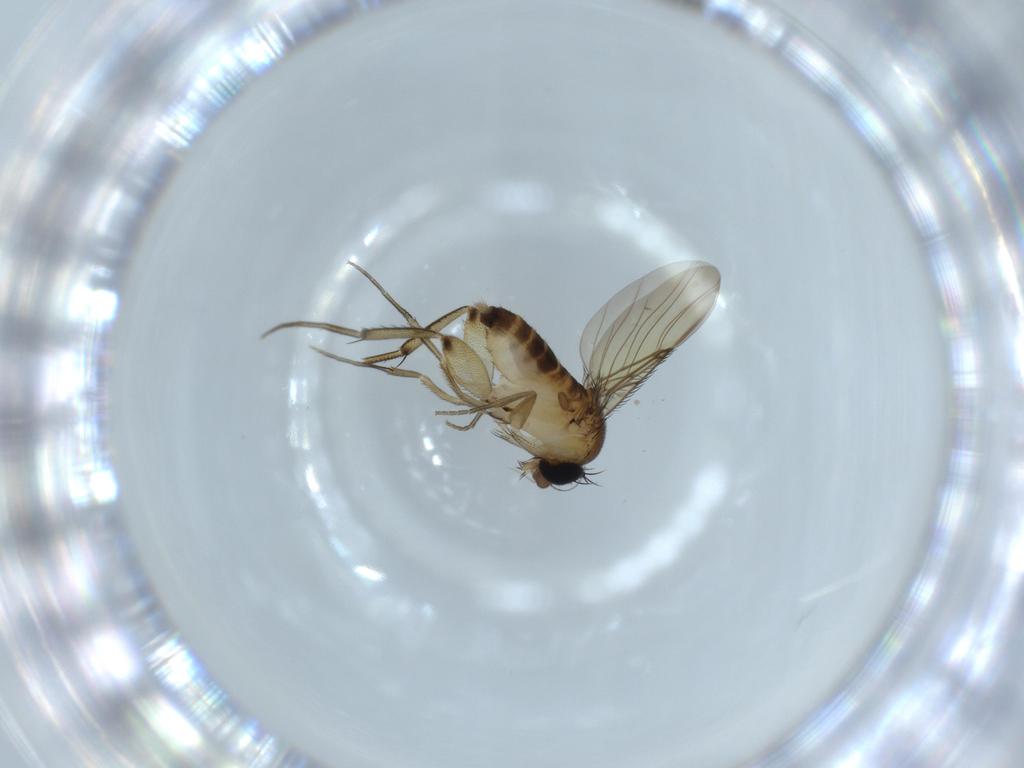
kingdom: Animalia
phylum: Arthropoda
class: Insecta
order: Diptera
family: Phoridae
